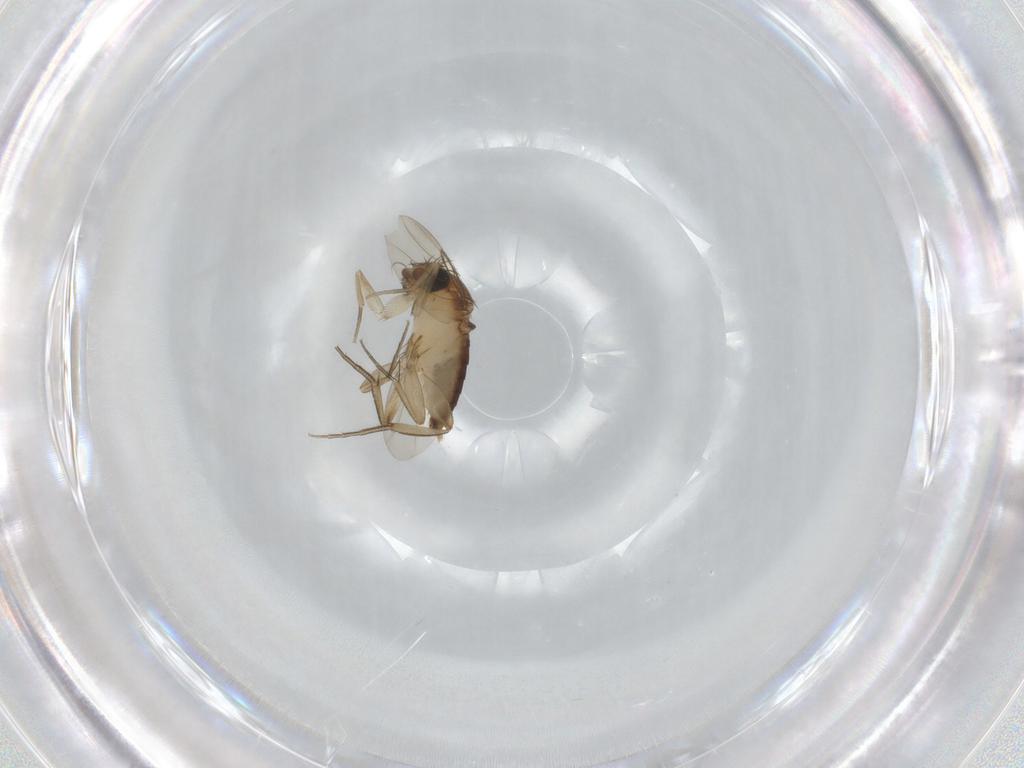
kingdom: Animalia
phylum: Arthropoda
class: Insecta
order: Diptera
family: Phoridae
